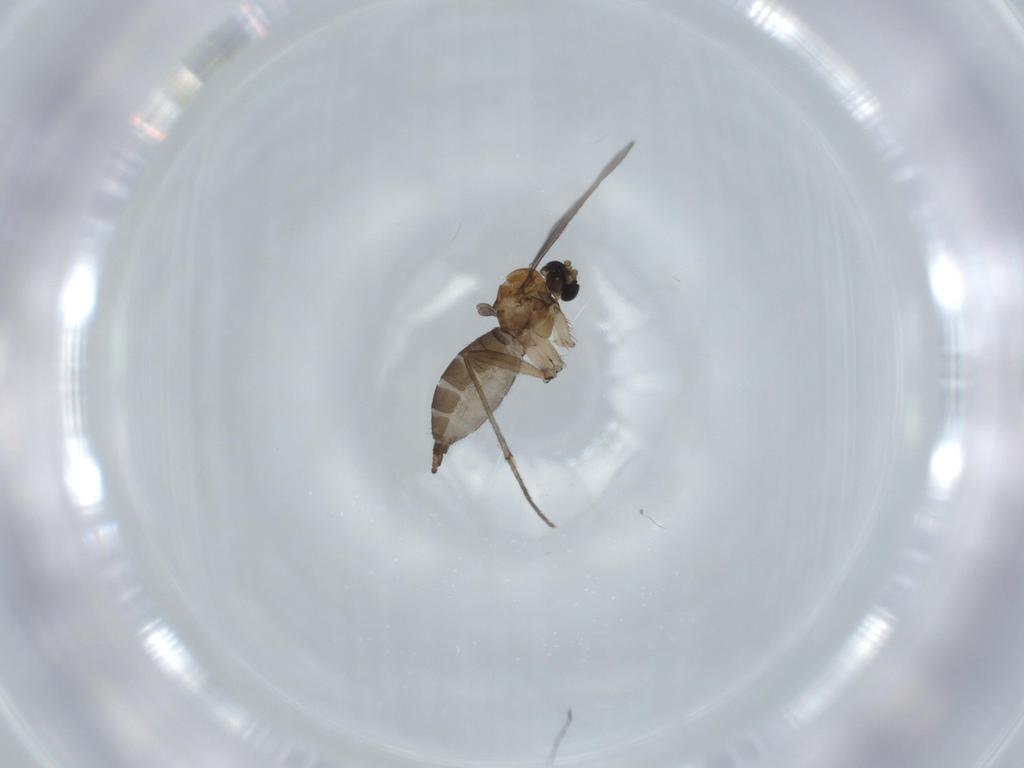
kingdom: Animalia
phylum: Arthropoda
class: Insecta
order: Diptera
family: Sciaridae
